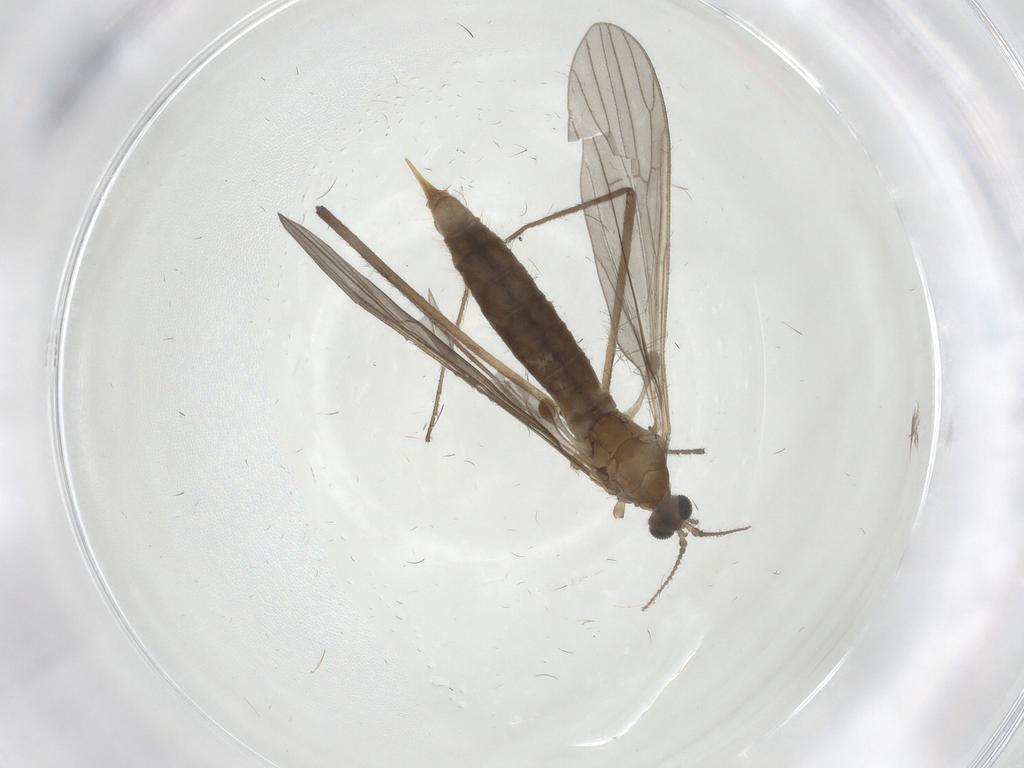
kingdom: Animalia
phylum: Arthropoda
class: Insecta
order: Diptera
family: Limoniidae
